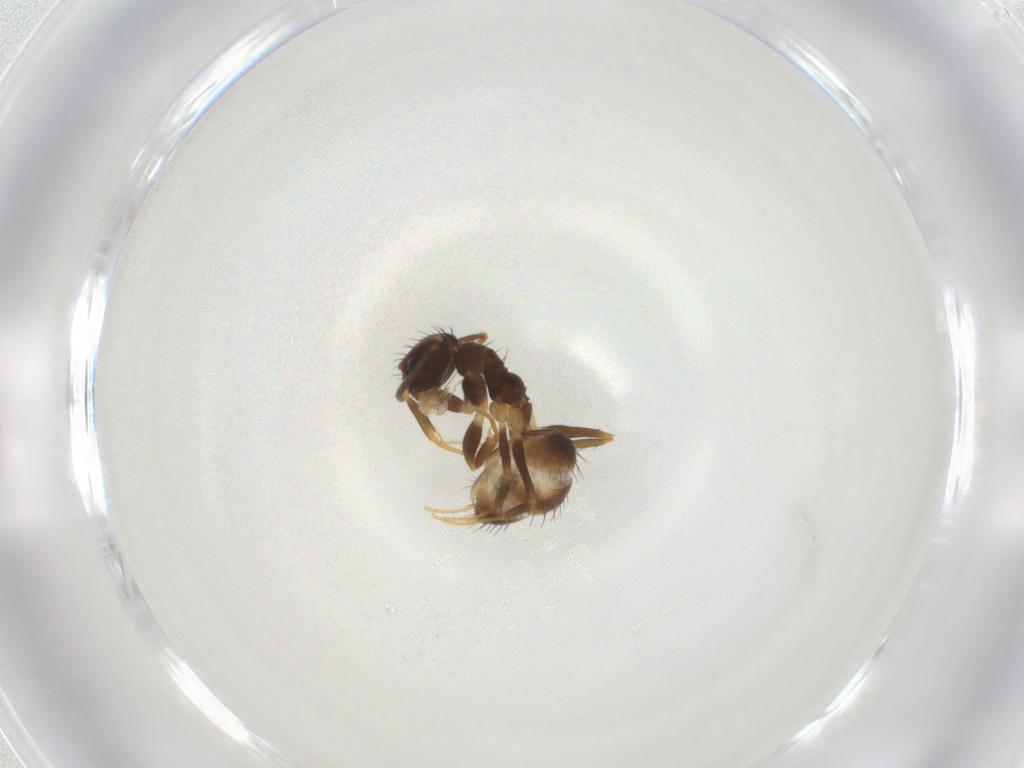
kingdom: Animalia
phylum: Arthropoda
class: Insecta
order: Hymenoptera
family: Formicidae
